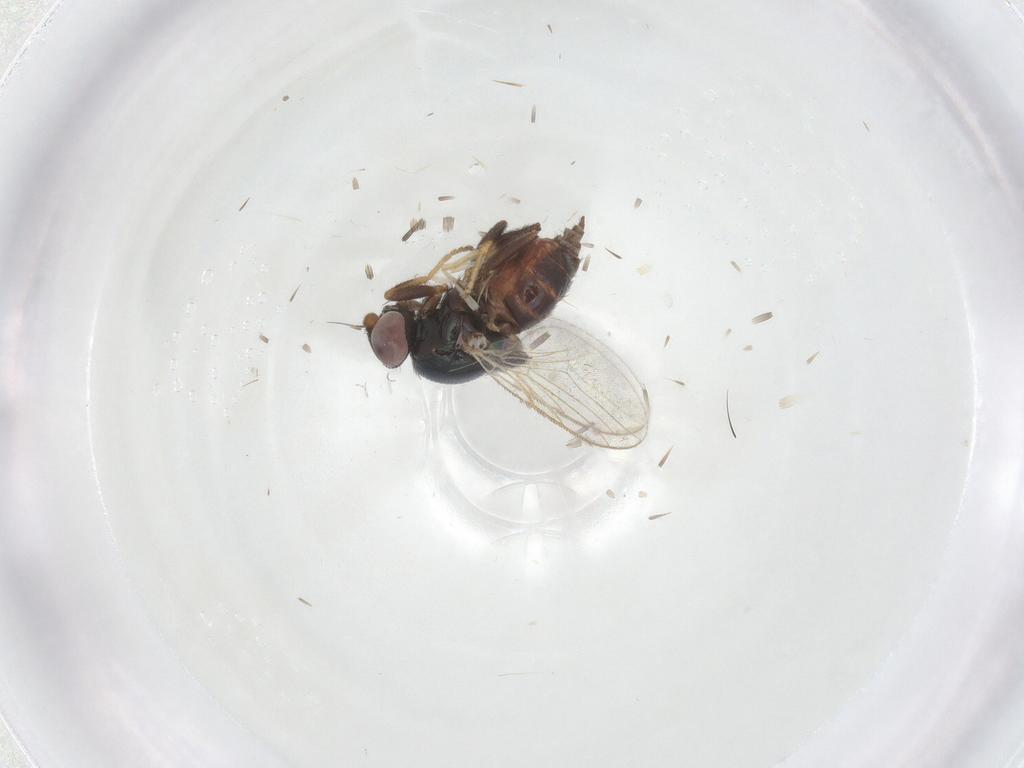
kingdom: Animalia
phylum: Arthropoda
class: Insecta
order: Diptera
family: Chloropidae
